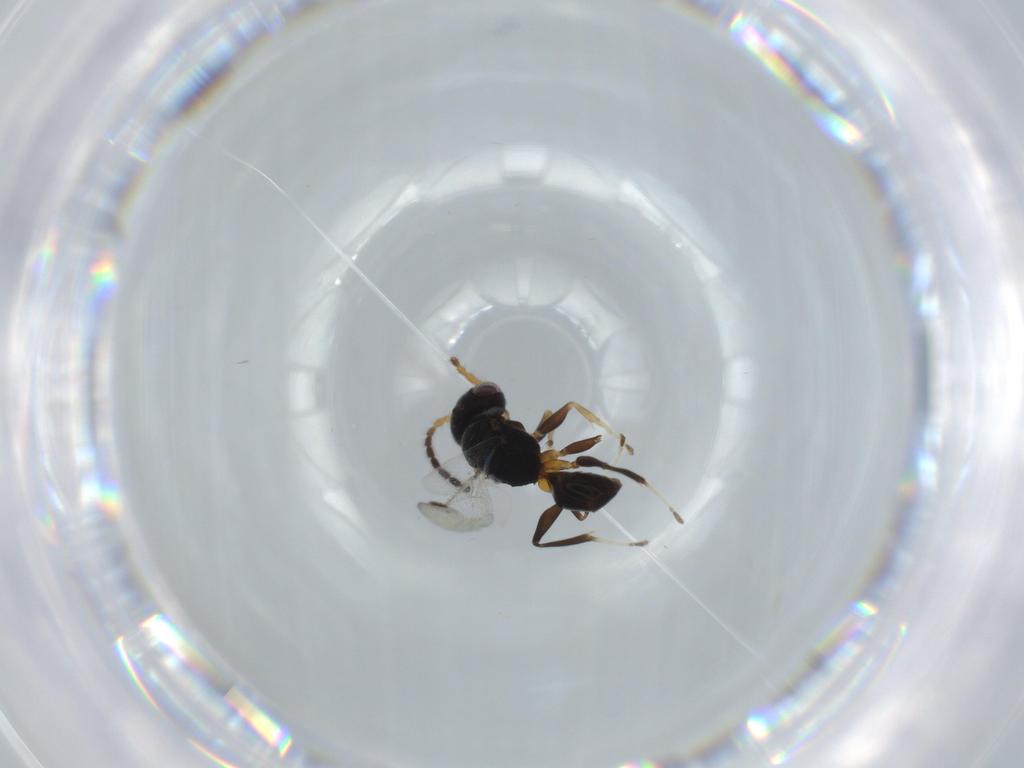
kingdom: Animalia
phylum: Arthropoda
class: Insecta
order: Hymenoptera
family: Dryinidae
